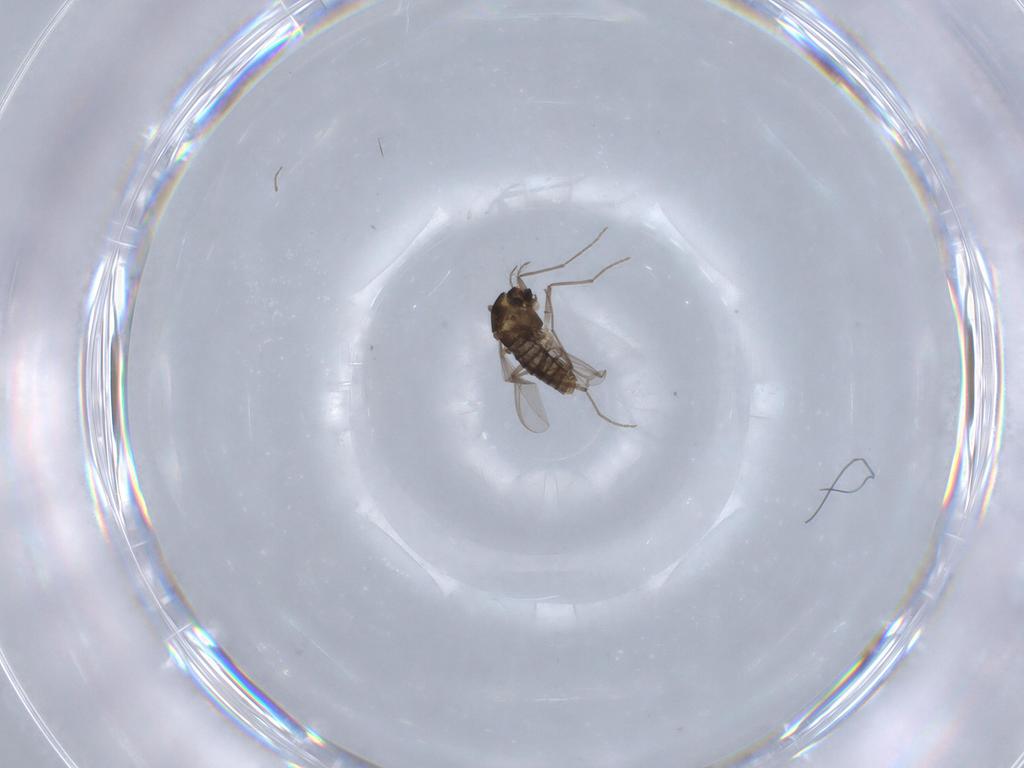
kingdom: Animalia
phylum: Arthropoda
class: Insecta
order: Diptera
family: Chironomidae
